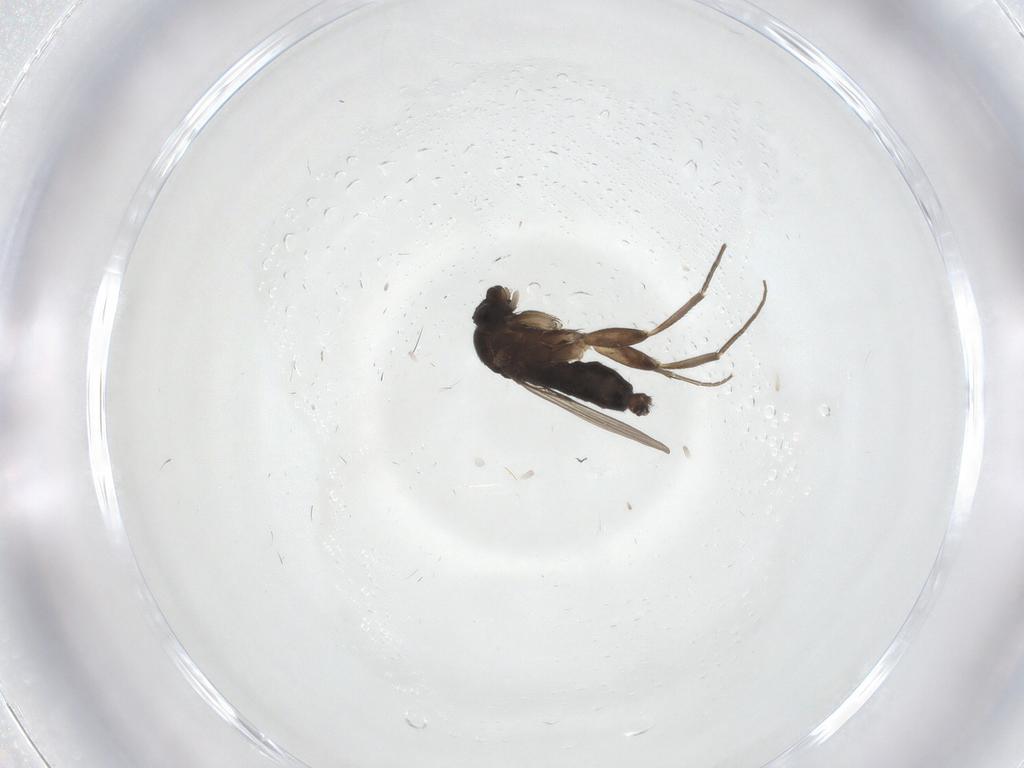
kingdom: Animalia
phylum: Arthropoda
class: Insecta
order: Diptera
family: Phoridae
